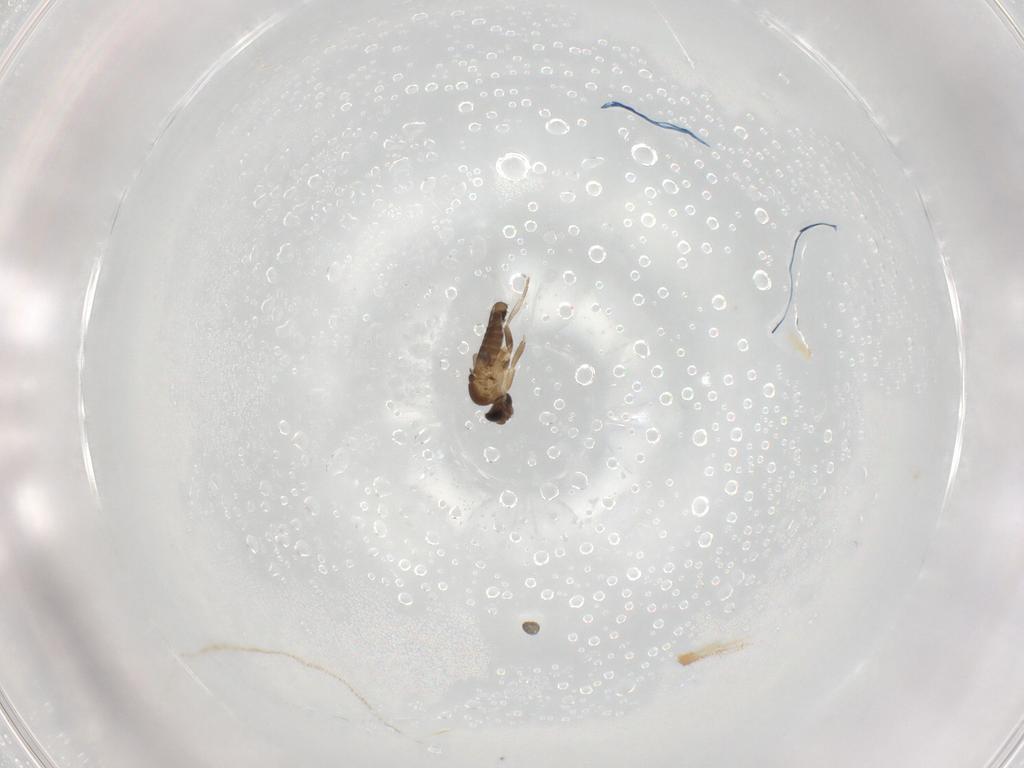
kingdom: Animalia
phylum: Arthropoda
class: Insecta
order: Diptera
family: Phoridae
